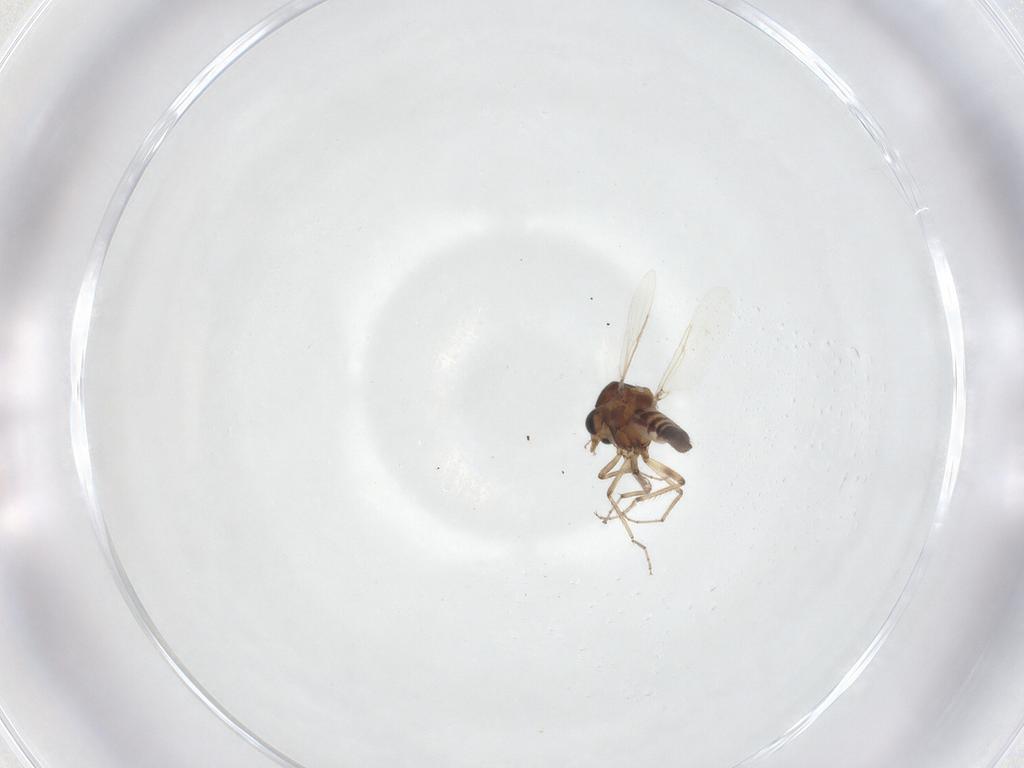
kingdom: Animalia
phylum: Arthropoda
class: Insecta
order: Diptera
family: Ceratopogonidae
